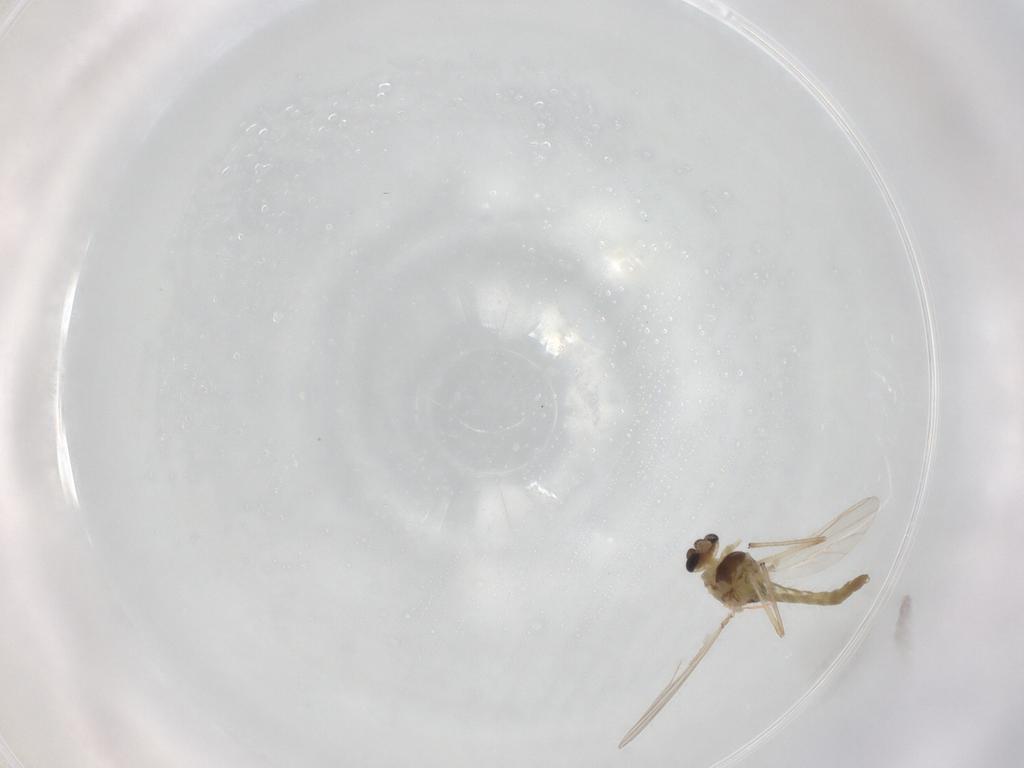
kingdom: Animalia
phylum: Arthropoda
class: Insecta
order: Diptera
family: Chironomidae
